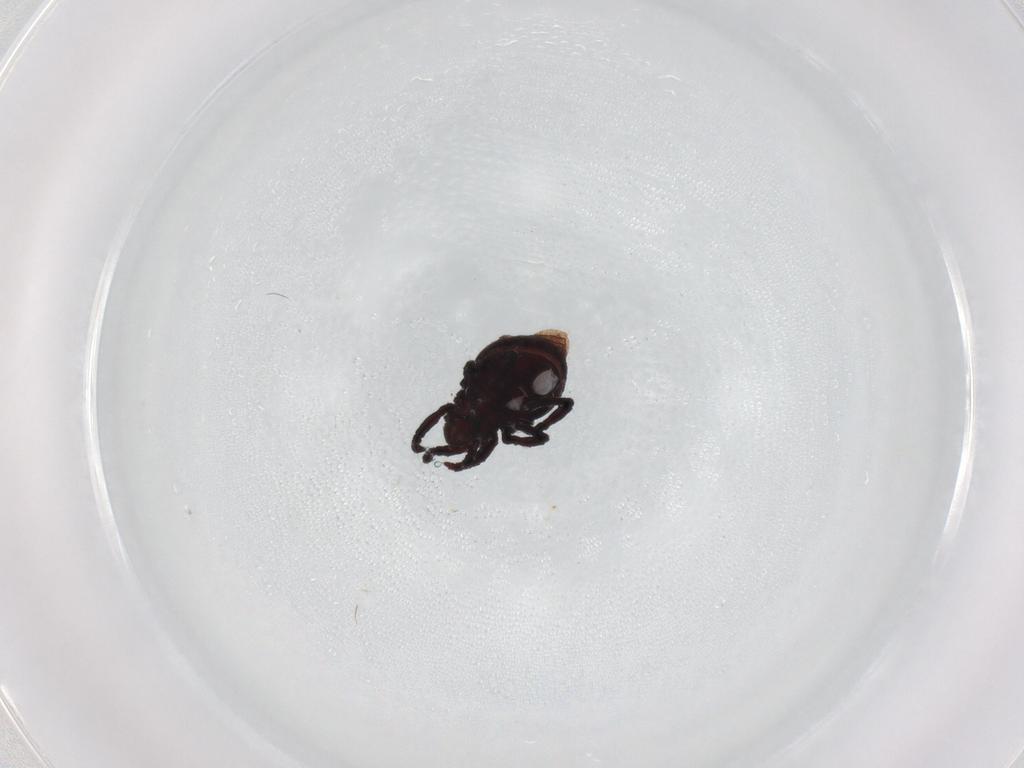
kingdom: Animalia
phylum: Arthropoda
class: Arachnida
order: Sarcoptiformes
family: Neoliodidae
